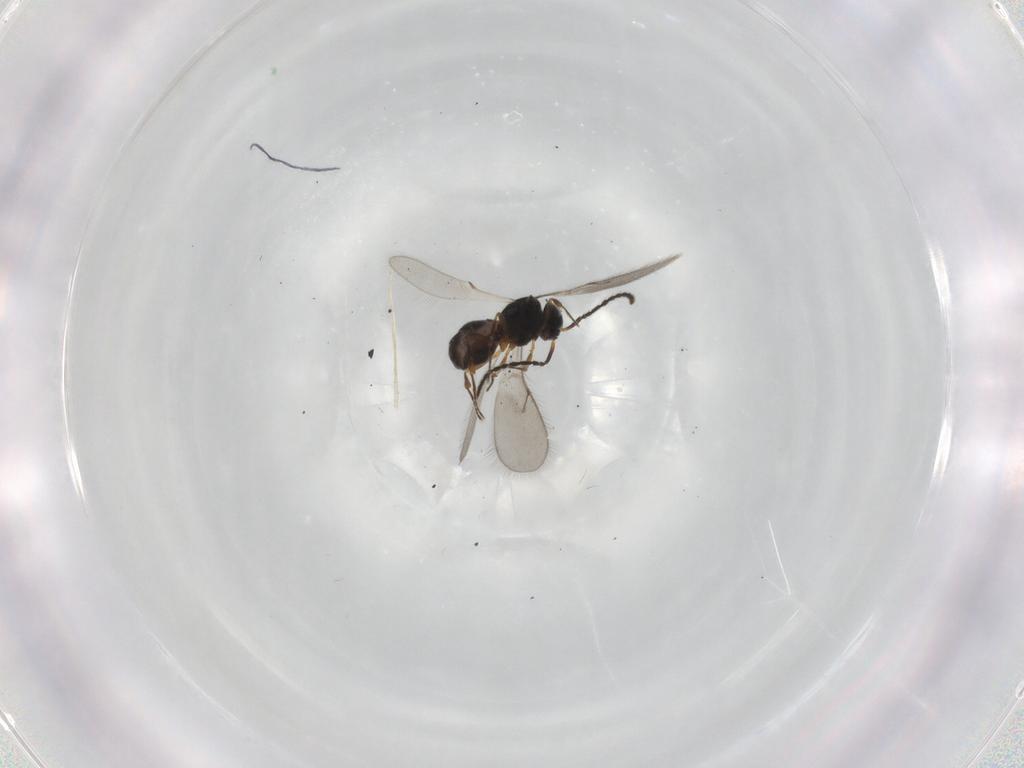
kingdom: Animalia
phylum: Arthropoda
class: Insecta
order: Hymenoptera
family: Scelionidae
